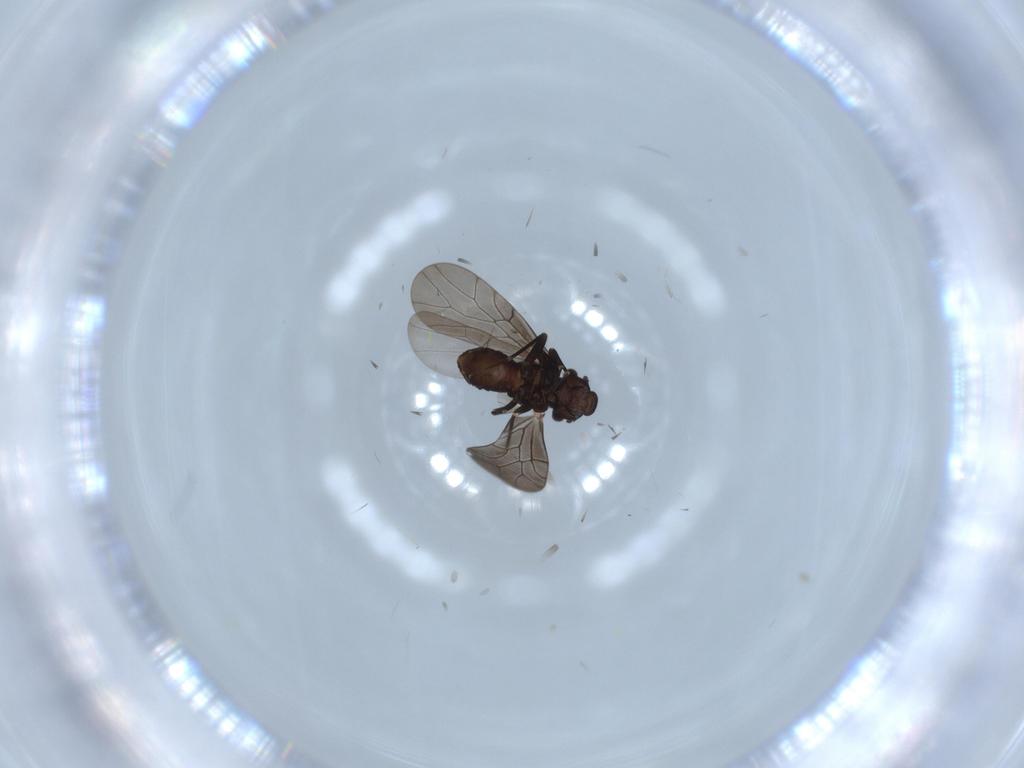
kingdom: Animalia
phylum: Arthropoda
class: Insecta
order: Psocodea
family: Lepidopsocidae
